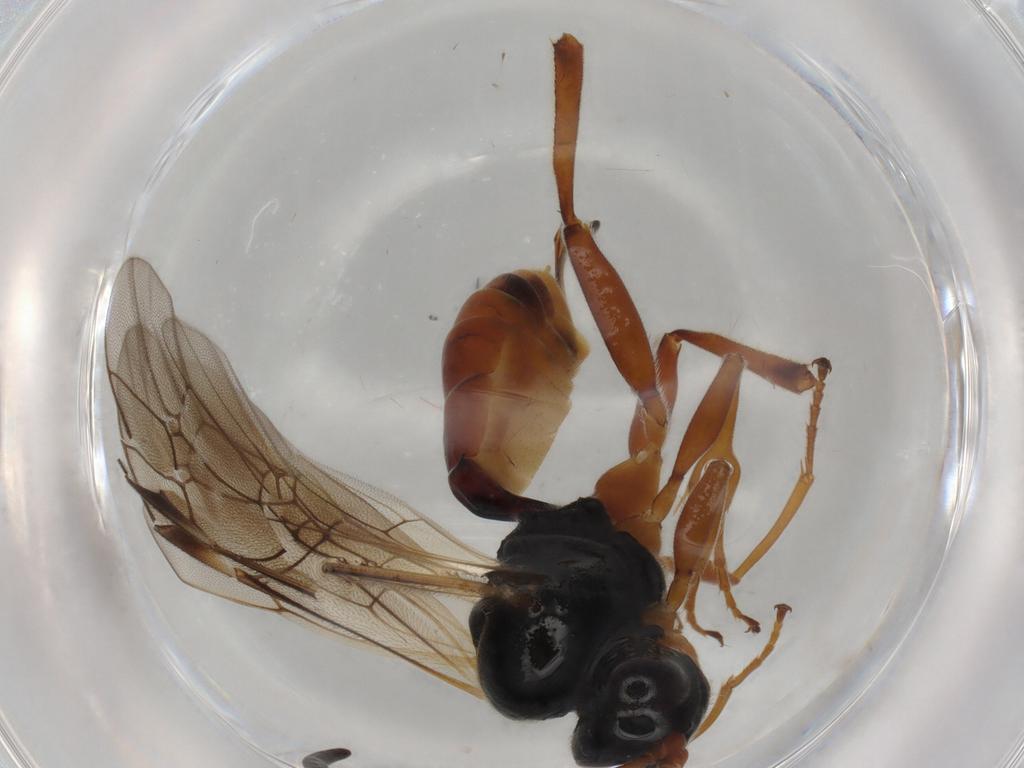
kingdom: Animalia
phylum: Arthropoda
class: Insecta
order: Hymenoptera
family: Ichneumonidae
